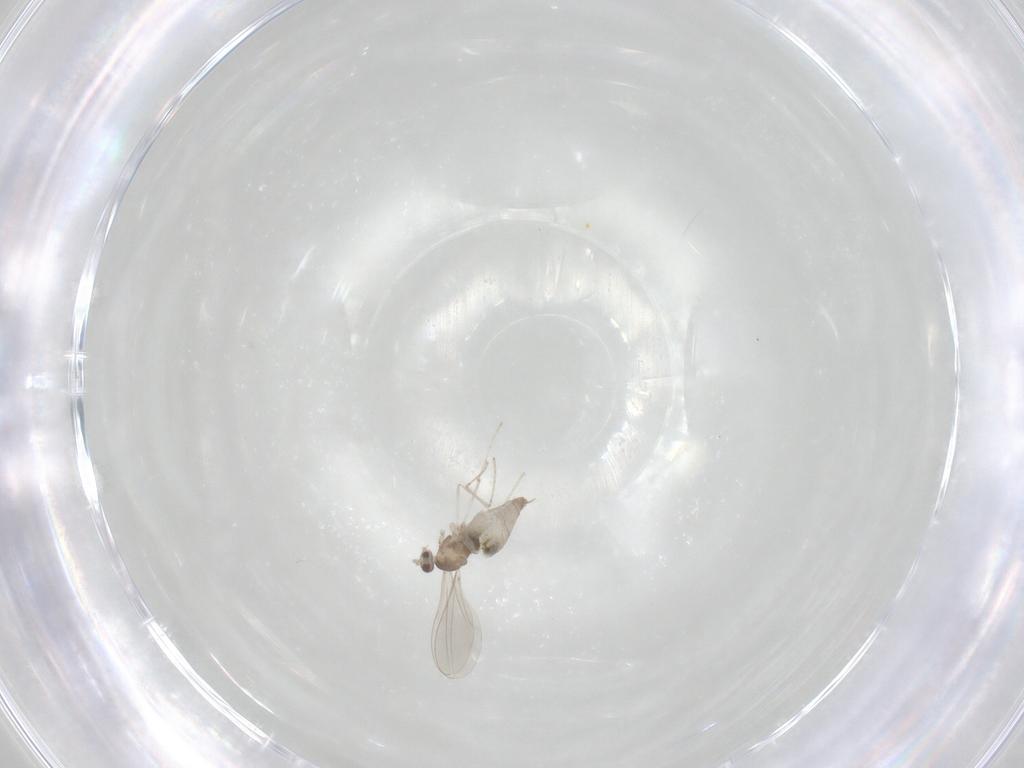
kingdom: Animalia
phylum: Arthropoda
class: Insecta
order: Diptera
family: Cecidomyiidae
